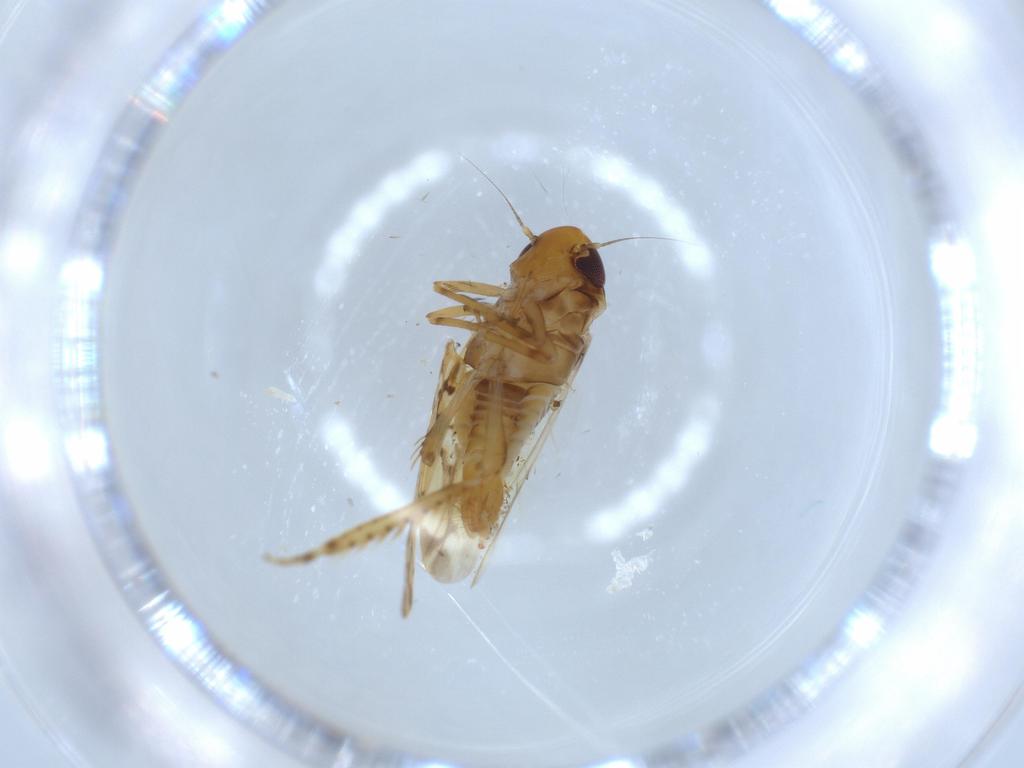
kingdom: Animalia
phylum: Arthropoda
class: Insecta
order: Hemiptera
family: Cicadellidae
